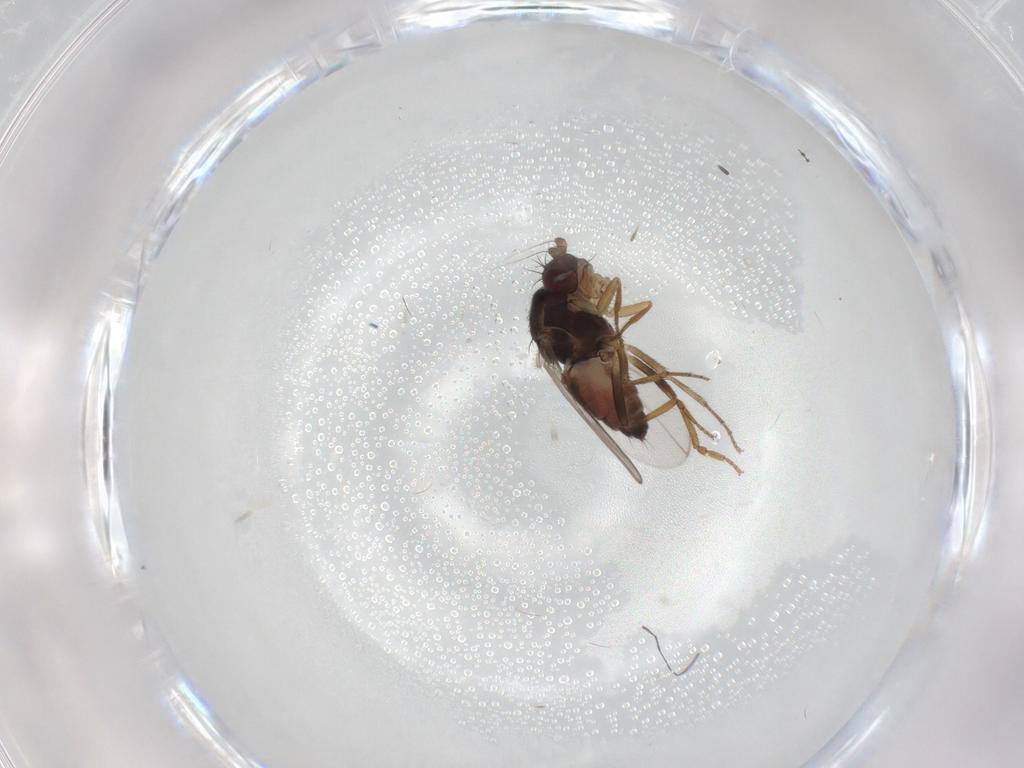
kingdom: Animalia
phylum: Arthropoda
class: Insecta
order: Diptera
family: Sphaeroceridae
